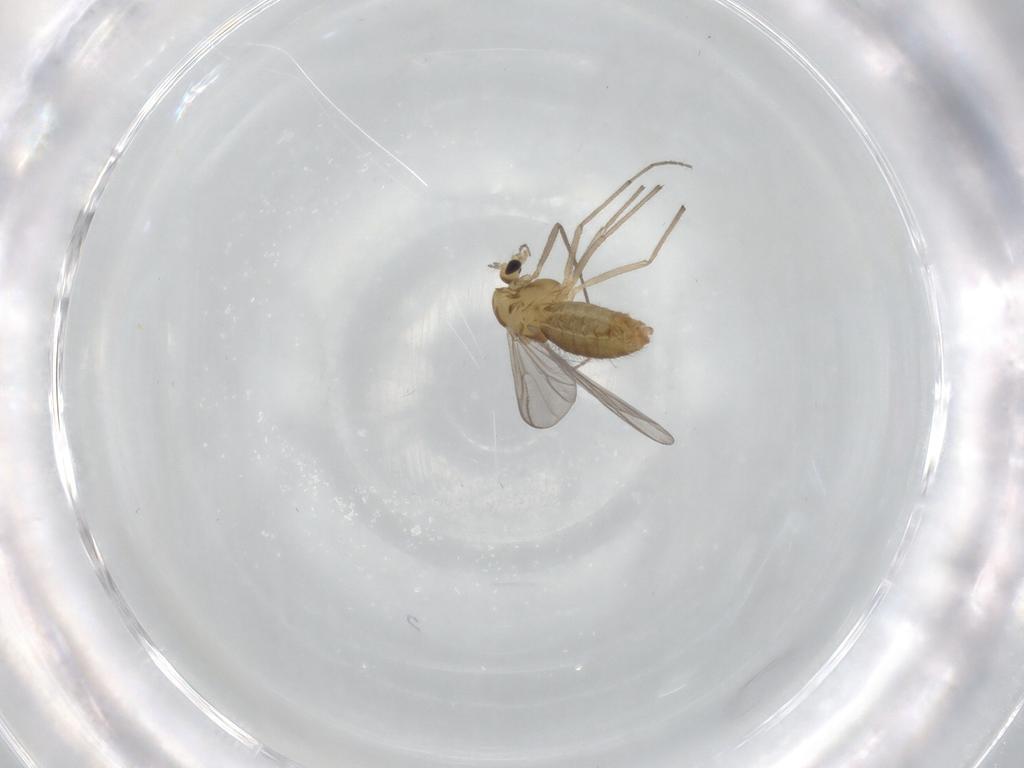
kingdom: Animalia
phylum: Arthropoda
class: Insecta
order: Diptera
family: Chironomidae
